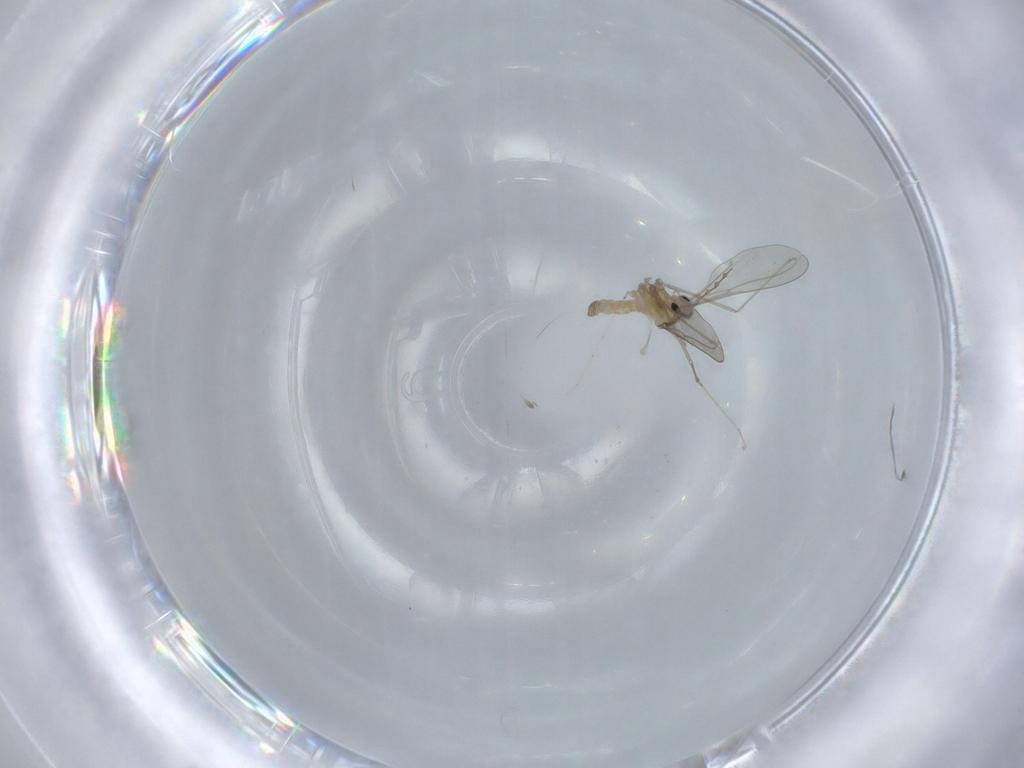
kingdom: Animalia
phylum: Arthropoda
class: Insecta
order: Diptera
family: Cecidomyiidae
